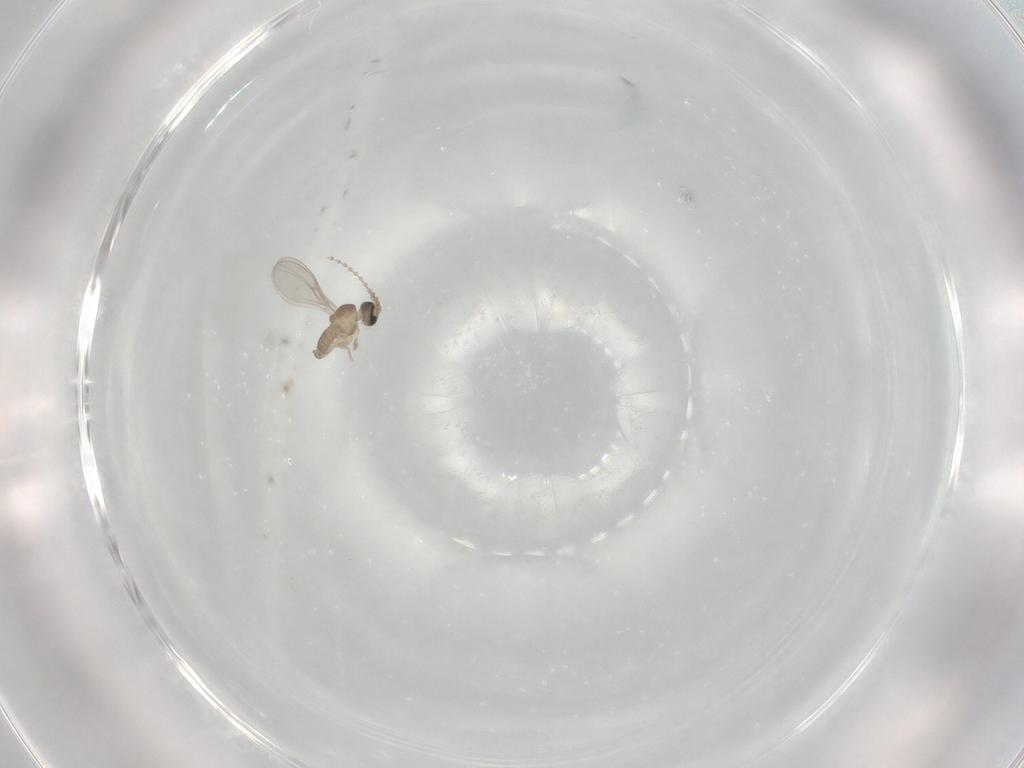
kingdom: Animalia
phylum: Arthropoda
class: Insecta
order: Diptera
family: Cecidomyiidae
